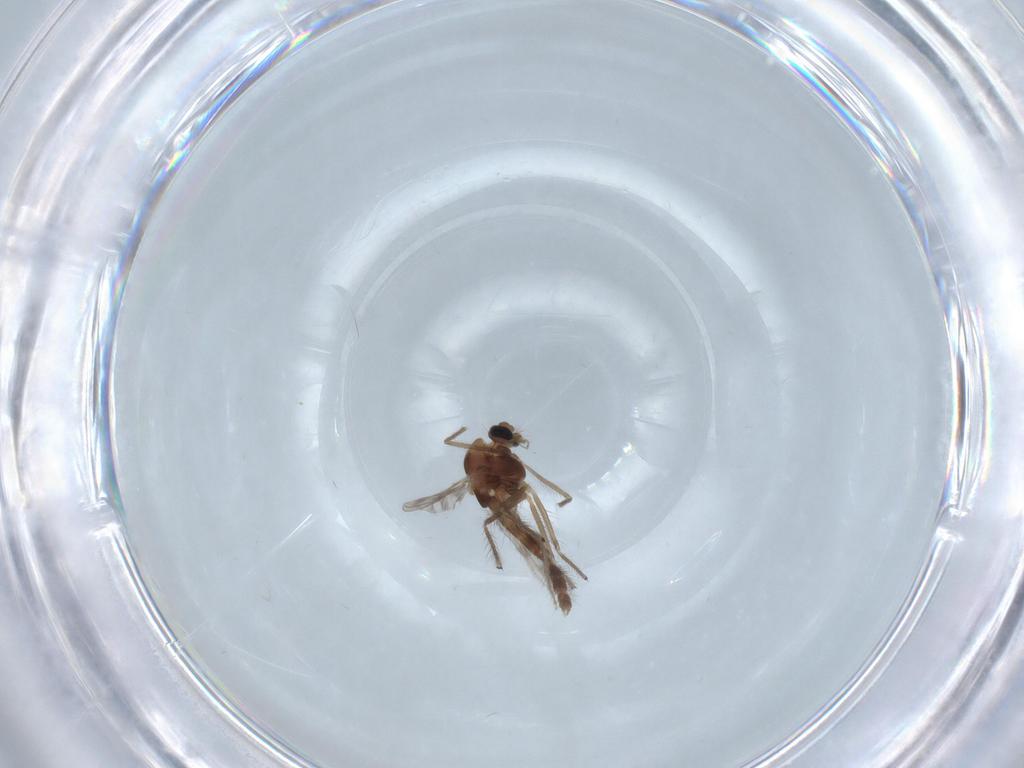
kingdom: Animalia
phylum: Arthropoda
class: Insecta
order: Diptera
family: Chironomidae
